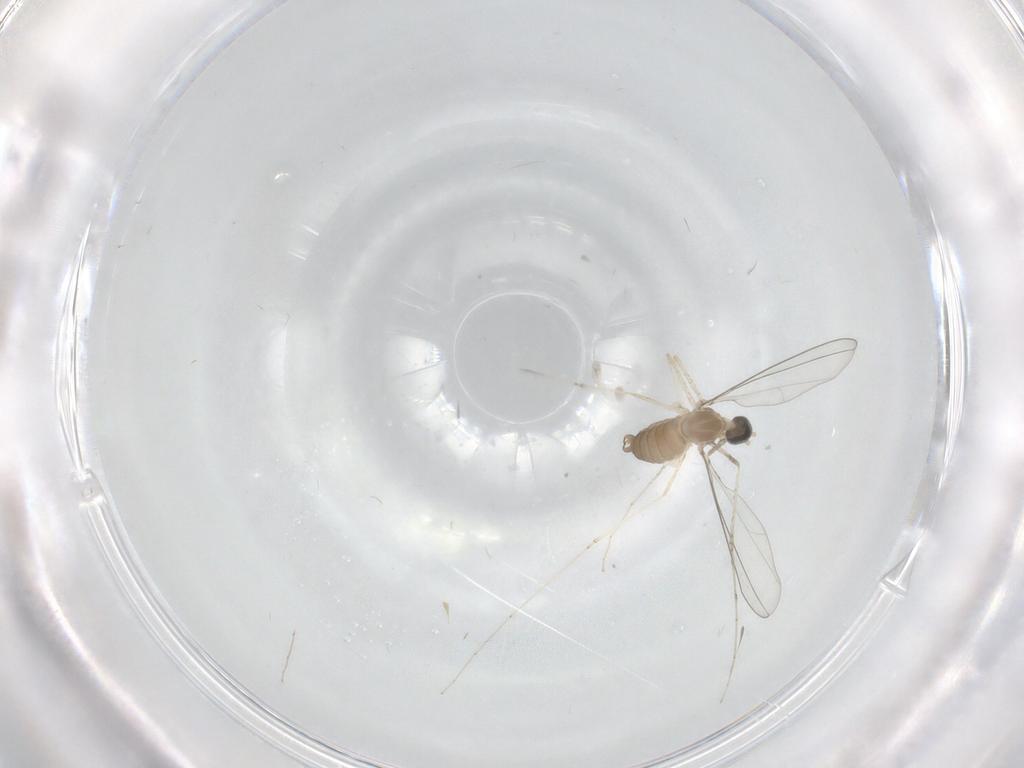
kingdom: Animalia
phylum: Arthropoda
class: Insecta
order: Diptera
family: Cecidomyiidae
